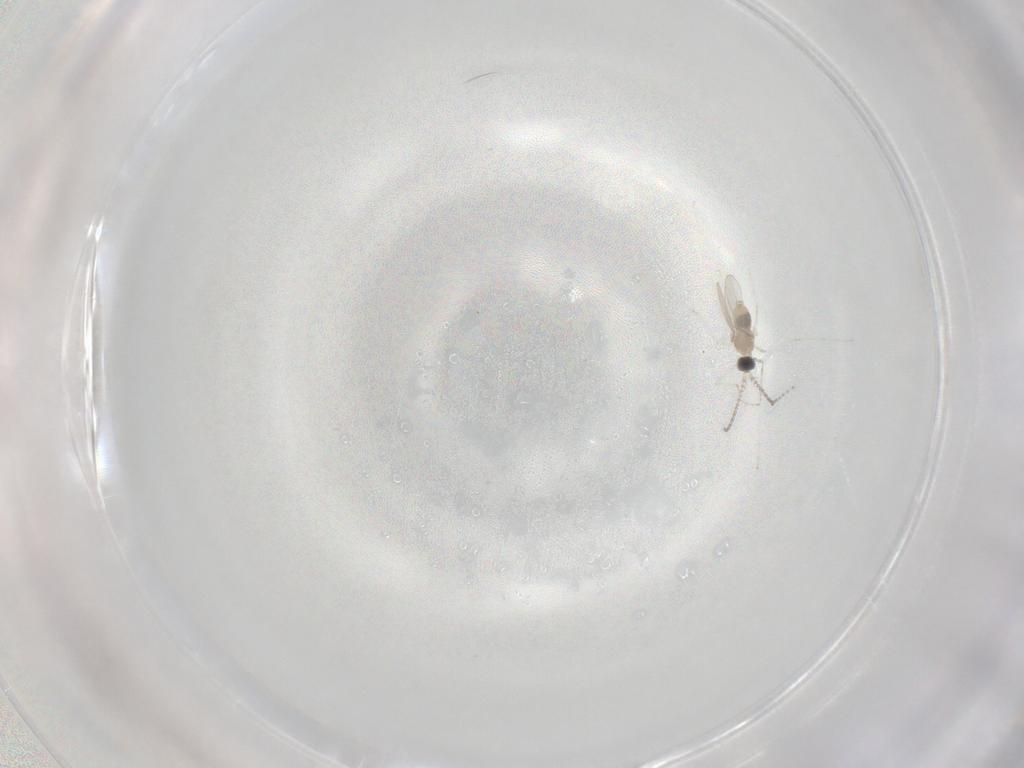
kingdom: Animalia
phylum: Arthropoda
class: Insecta
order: Diptera
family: Cecidomyiidae
